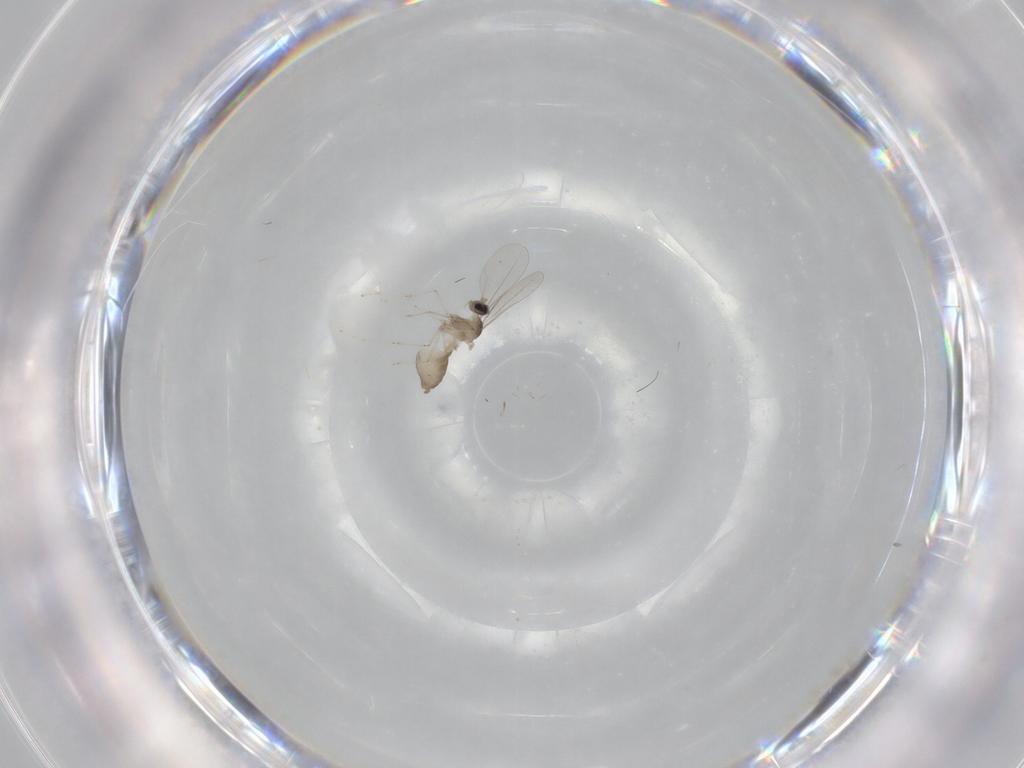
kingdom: Animalia
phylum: Arthropoda
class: Insecta
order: Diptera
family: Cecidomyiidae
